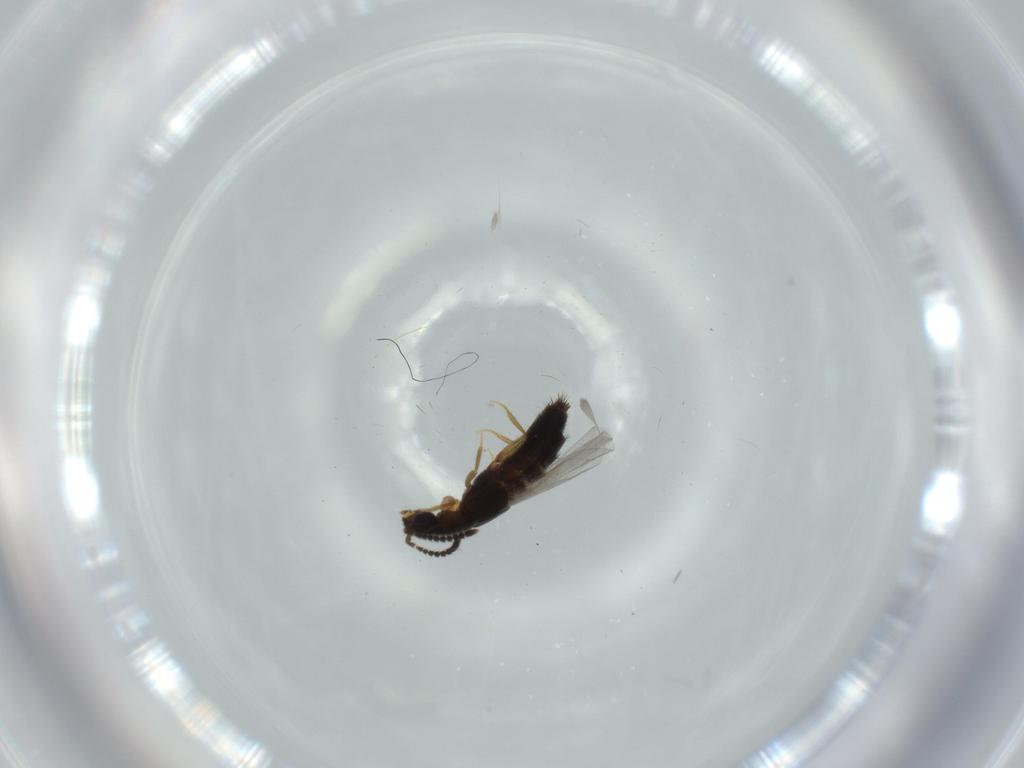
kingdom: Animalia
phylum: Arthropoda
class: Insecta
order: Coleoptera
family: Staphylinidae
